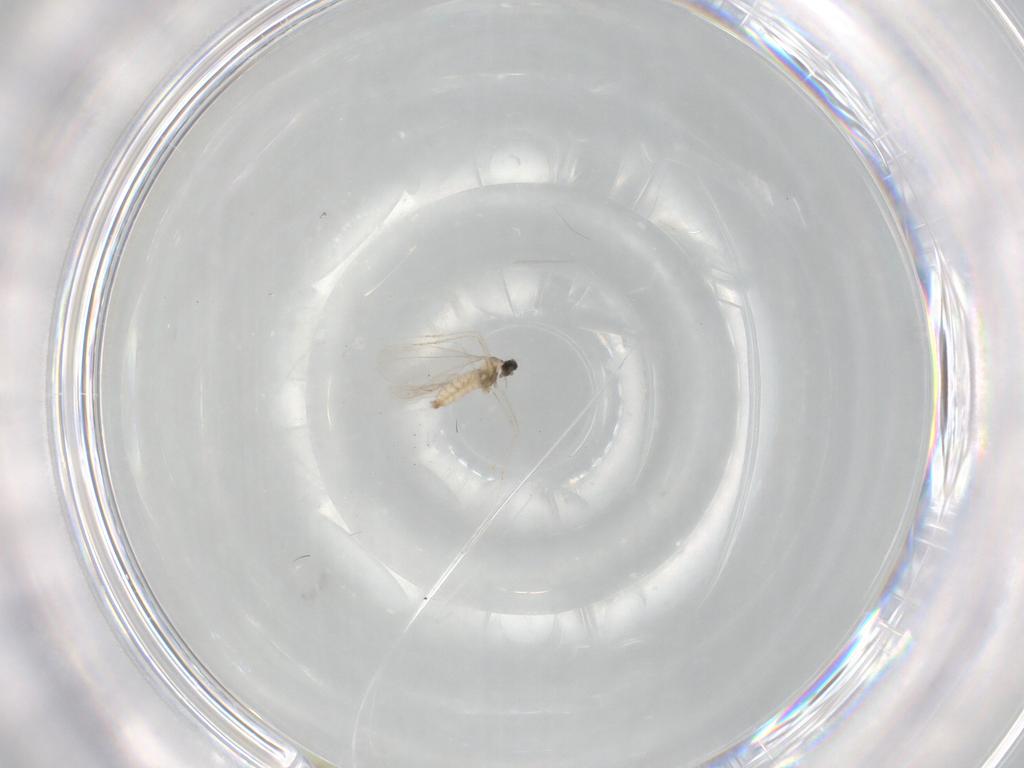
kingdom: Animalia
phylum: Arthropoda
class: Insecta
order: Diptera
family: Cecidomyiidae
